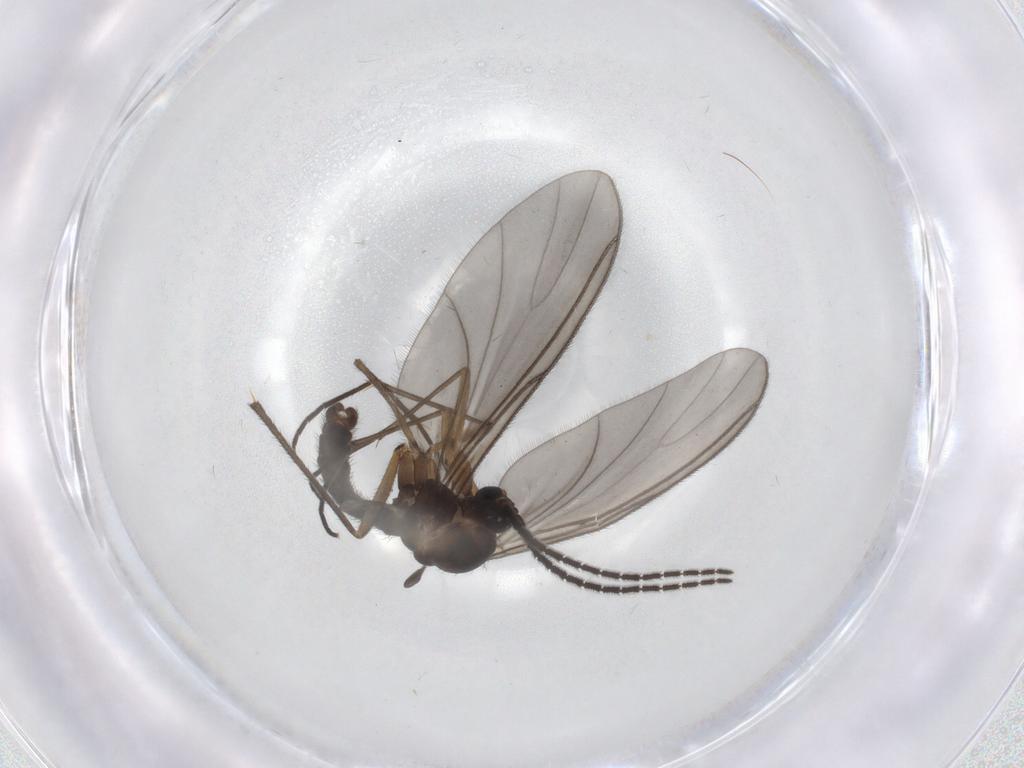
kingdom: Animalia
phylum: Arthropoda
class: Insecta
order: Diptera
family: Sciaridae
